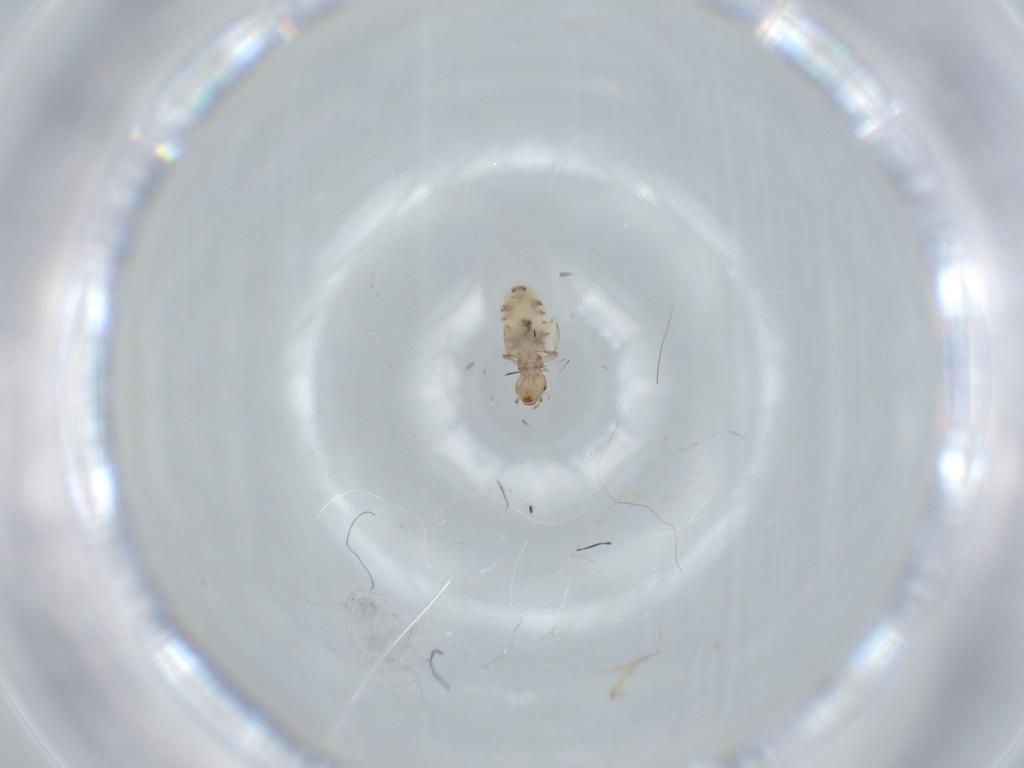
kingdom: Animalia
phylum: Arthropoda
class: Insecta
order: Psocodea
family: Liposcelididae
